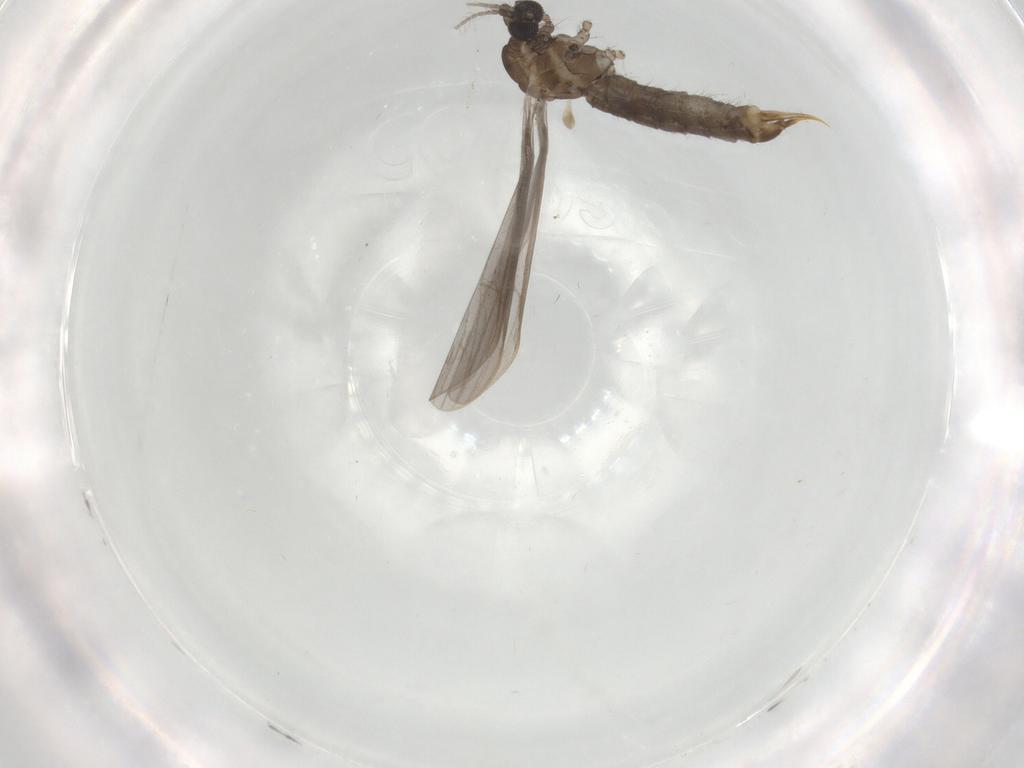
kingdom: Animalia
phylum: Arthropoda
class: Insecta
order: Diptera
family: Limoniidae
